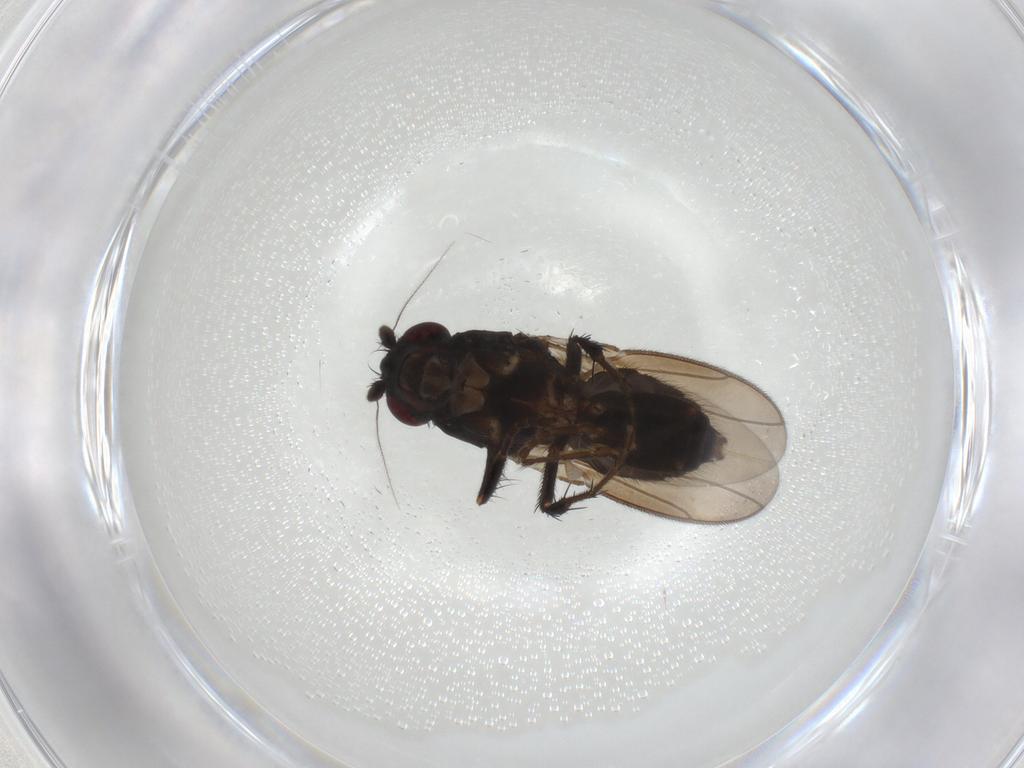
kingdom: Animalia
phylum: Arthropoda
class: Insecta
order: Diptera
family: Sphaeroceridae
